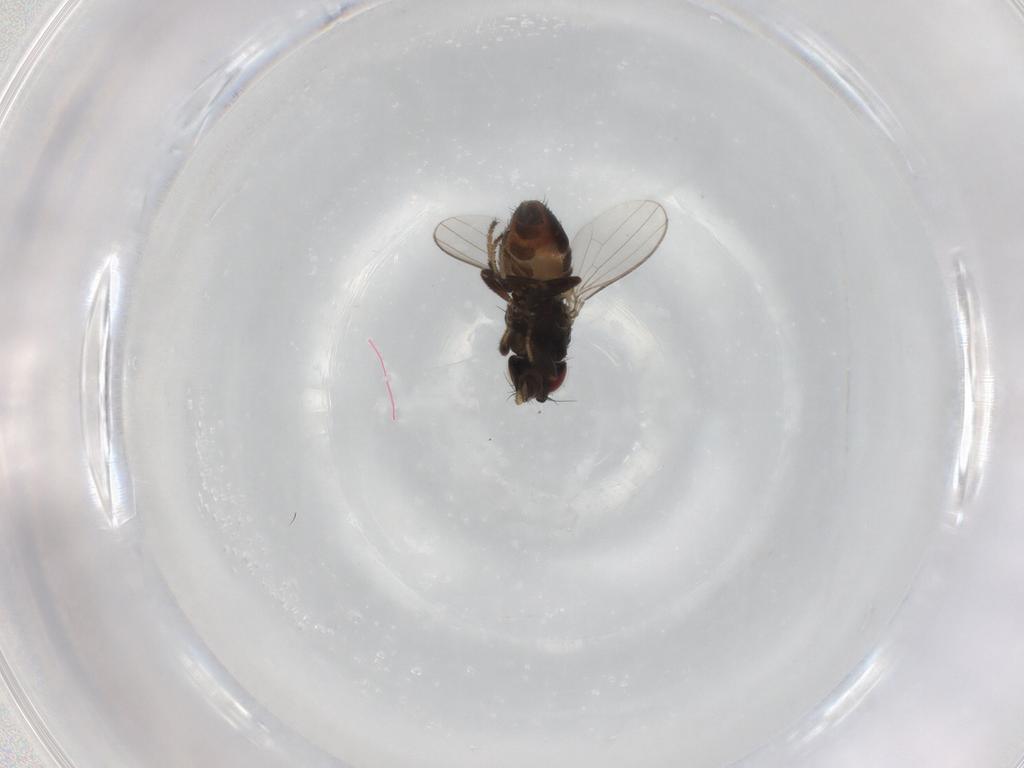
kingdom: Animalia
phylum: Arthropoda
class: Insecta
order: Diptera
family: Milichiidae
